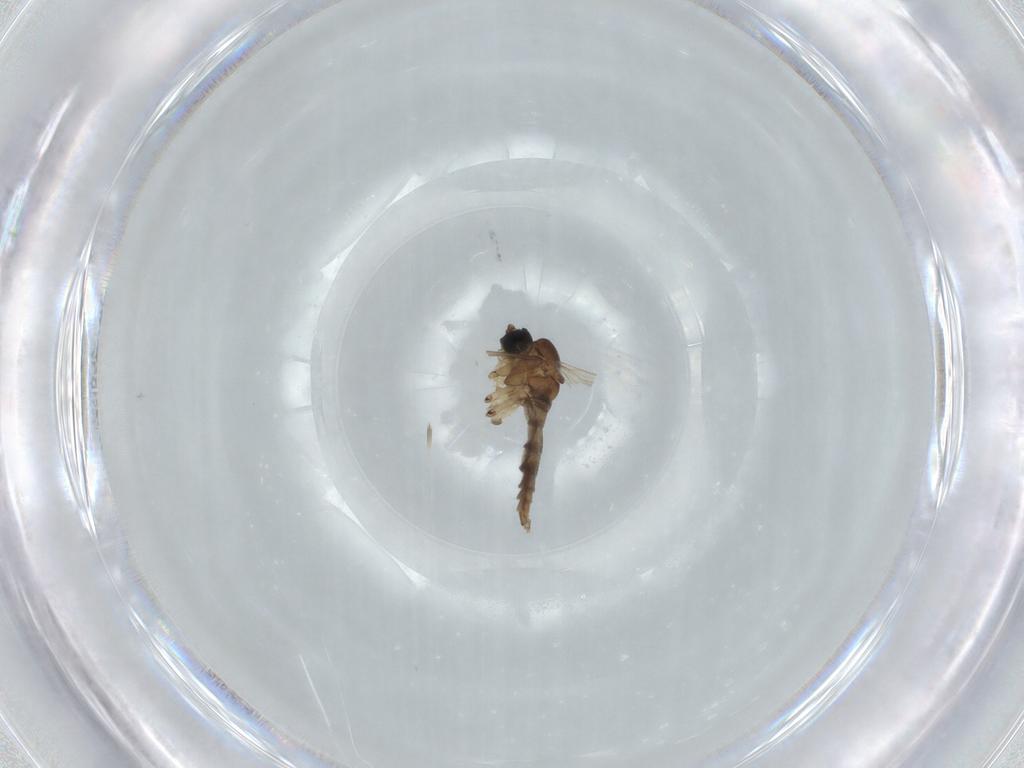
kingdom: Animalia
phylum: Arthropoda
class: Insecta
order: Diptera
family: Sciaridae
